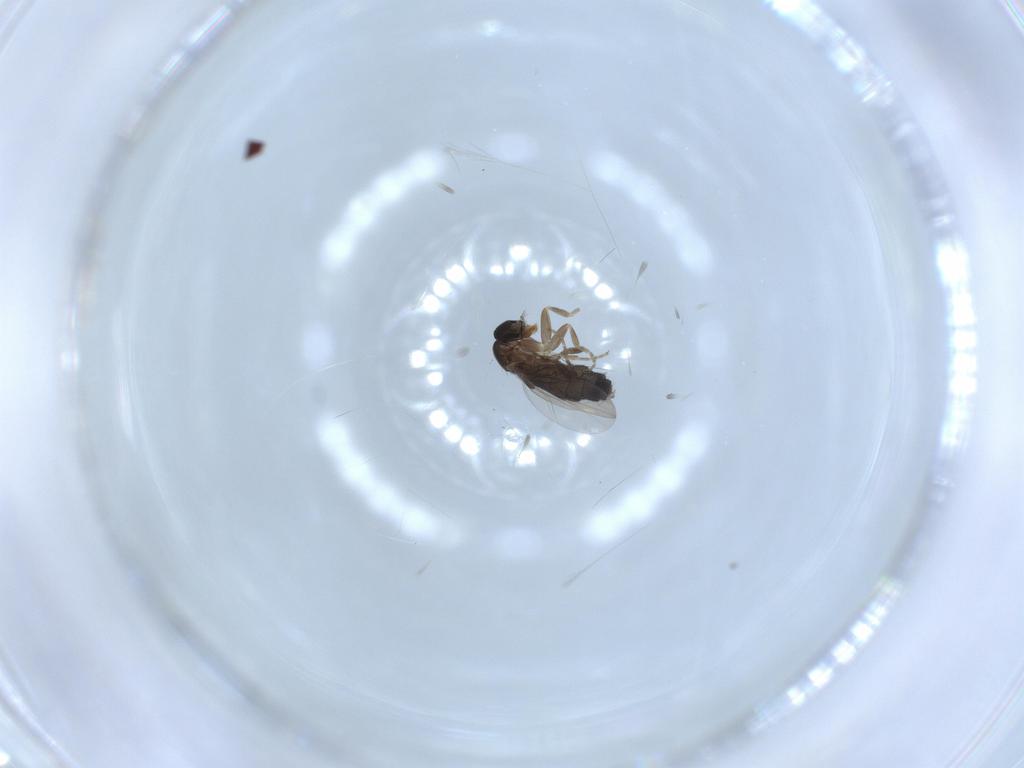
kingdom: Animalia
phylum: Arthropoda
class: Insecta
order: Diptera
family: Phoridae
